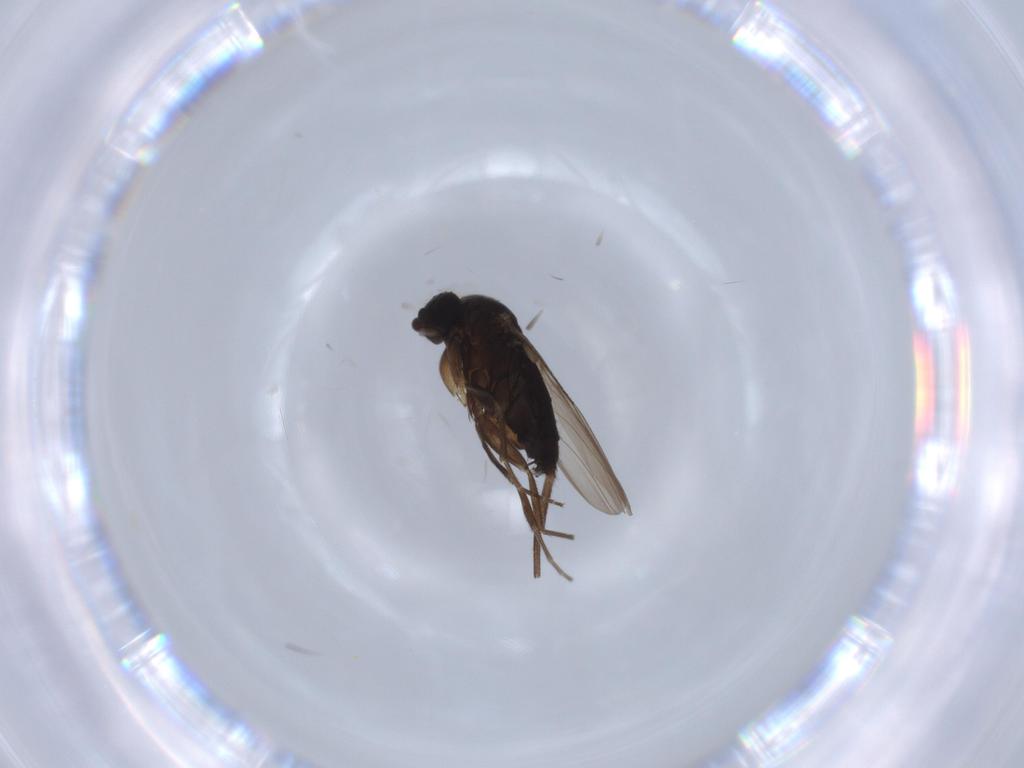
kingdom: Animalia
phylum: Arthropoda
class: Insecta
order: Diptera
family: Phoridae
